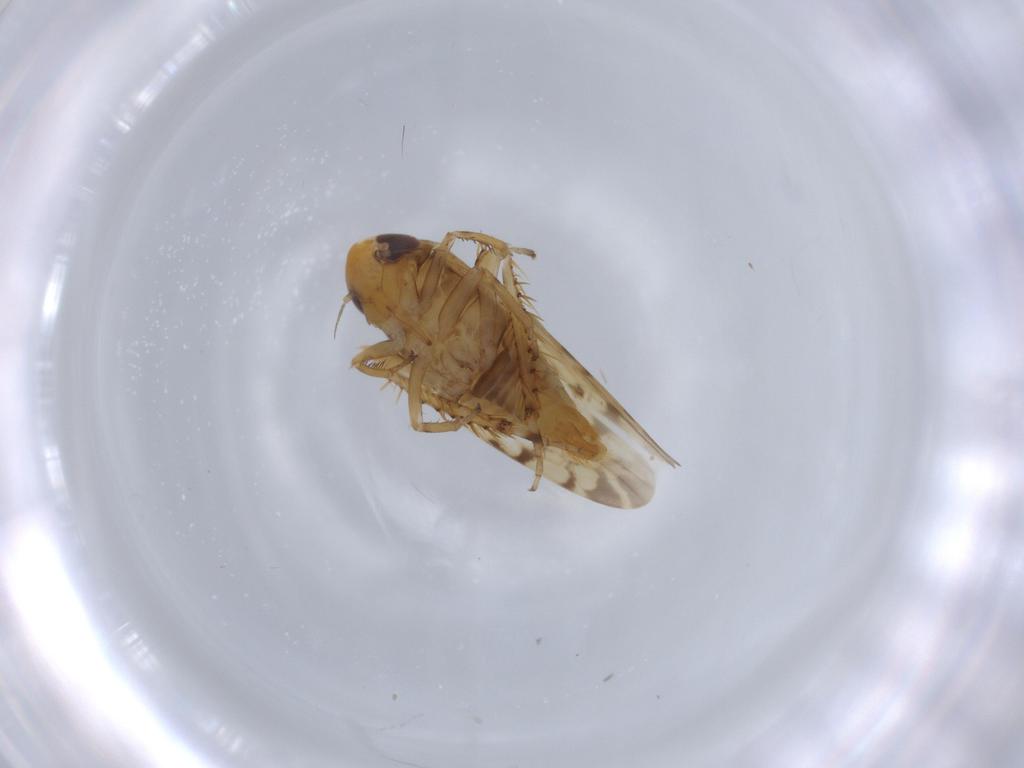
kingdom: Animalia
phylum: Arthropoda
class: Insecta
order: Hemiptera
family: Cicadellidae
